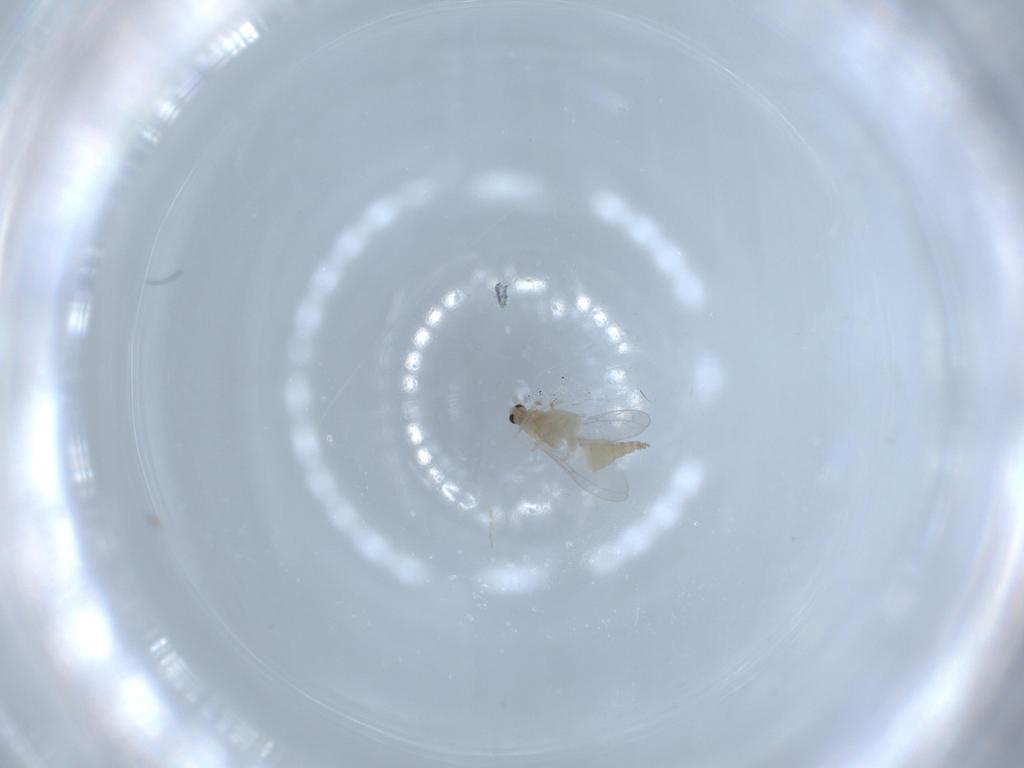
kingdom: Animalia
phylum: Arthropoda
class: Insecta
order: Diptera
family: Cecidomyiidae
